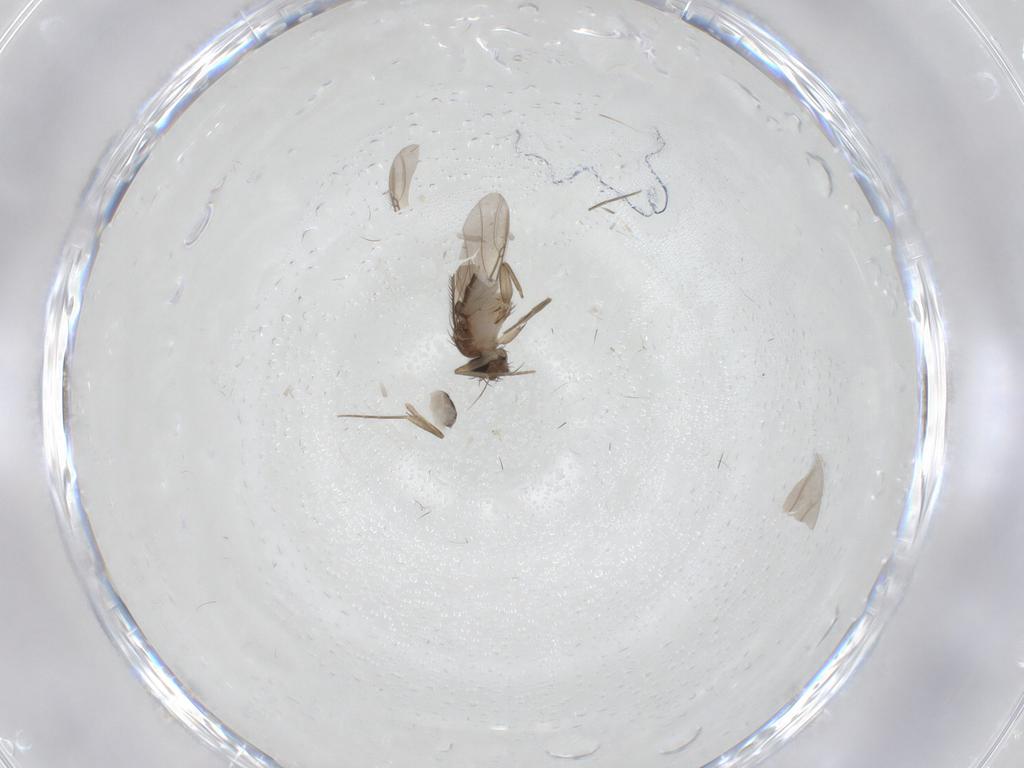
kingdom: Animalia
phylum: Arthropoda
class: Insecta
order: Diptera
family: Phoridae
